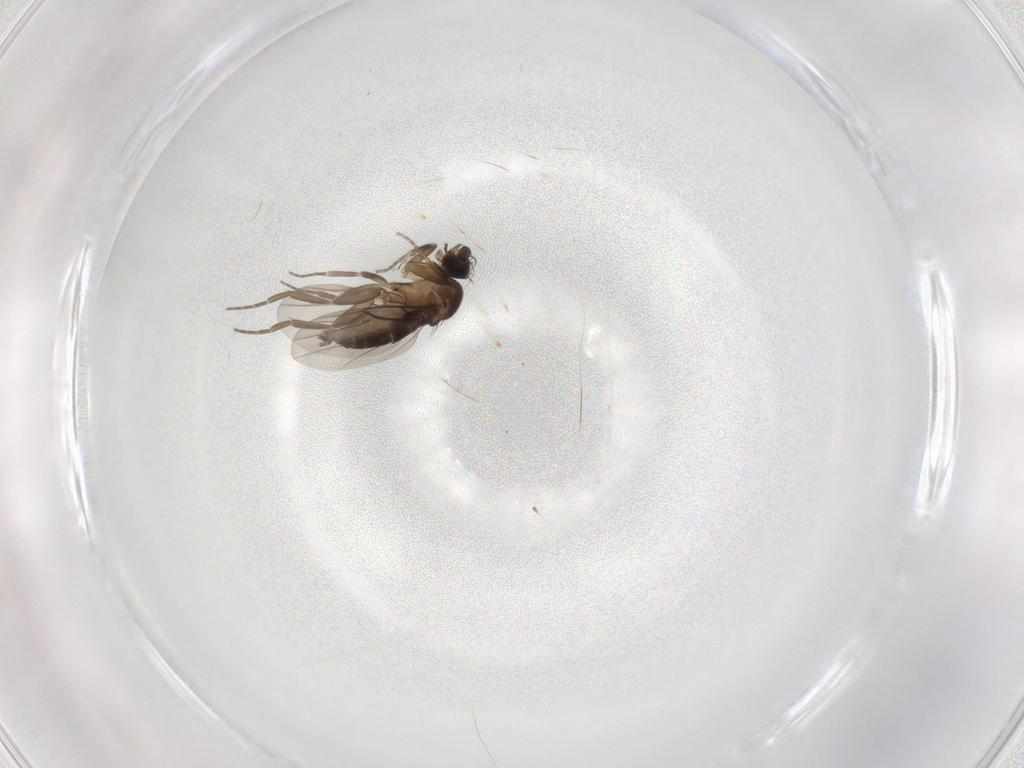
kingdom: Animalia
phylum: Arthropoda
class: Insecta
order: Diptera
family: Phoridae
